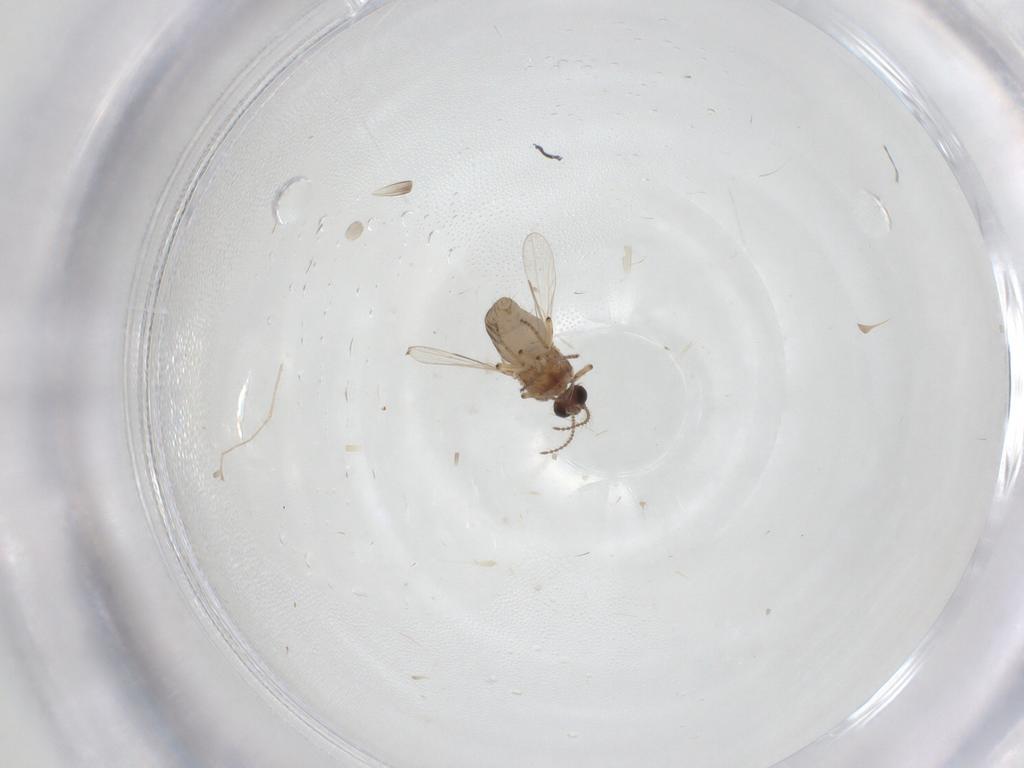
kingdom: Animalia
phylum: Arthropoda
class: Insecta
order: Diptera
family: Ceratopogonidae
